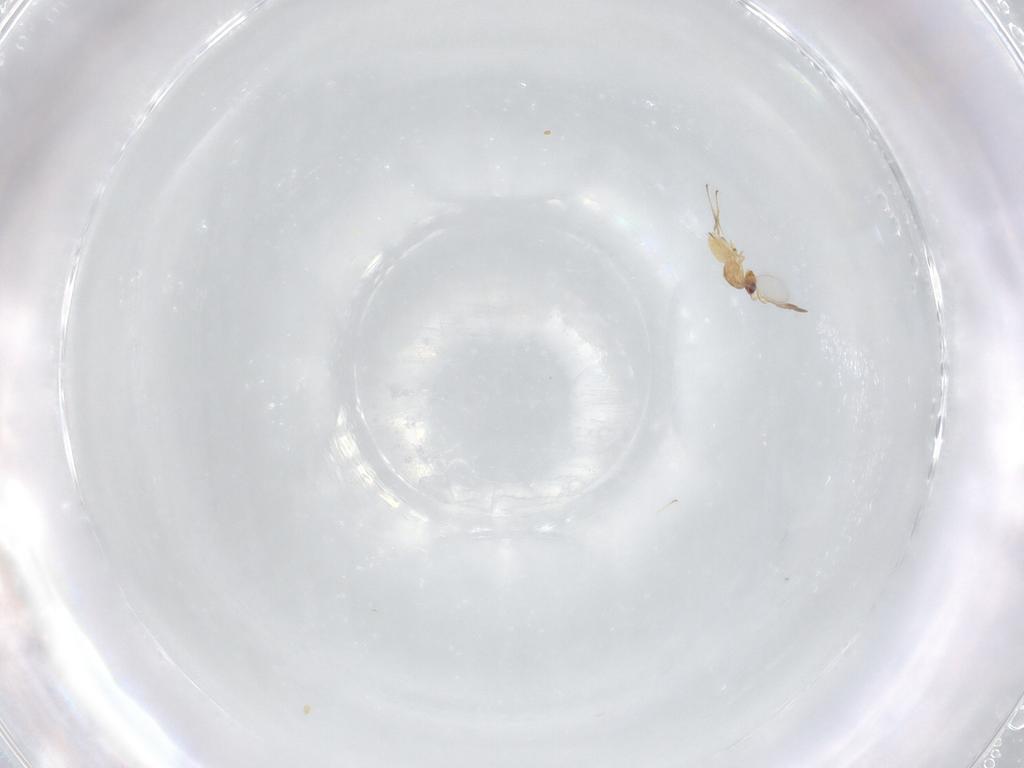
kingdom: Animalia
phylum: Arthropoda
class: Insecta
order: Hymenoptera
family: Mymaridae
